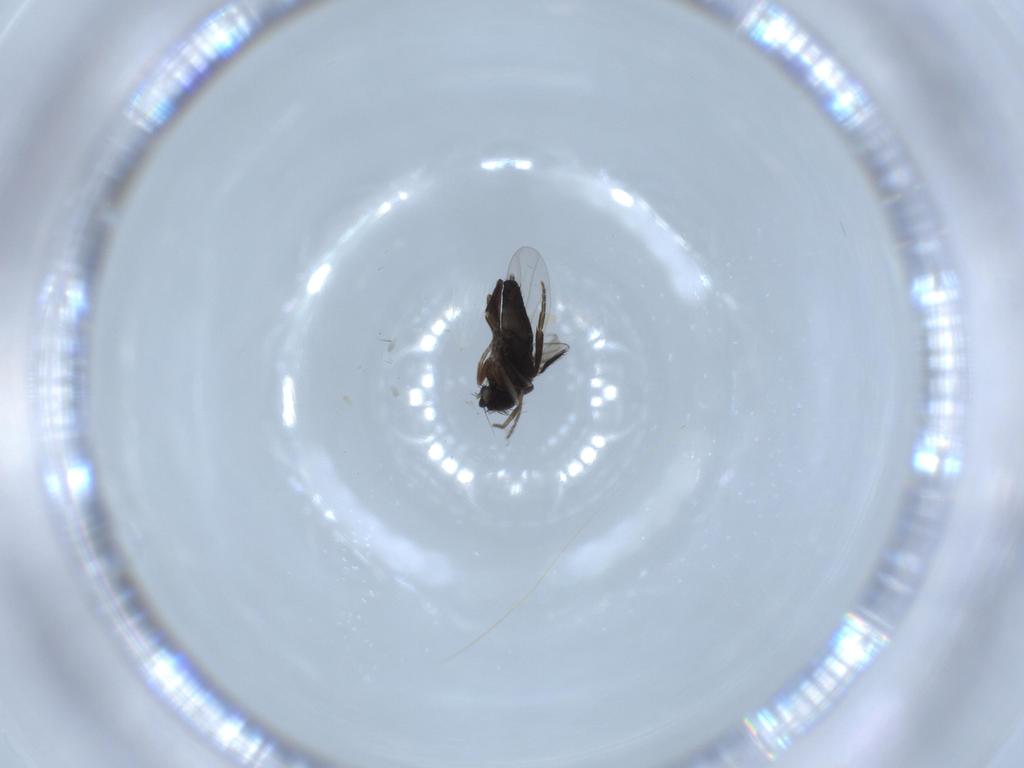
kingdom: Animalia
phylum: Arthropoda
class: Insecta
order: Diptera
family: Phoridae
